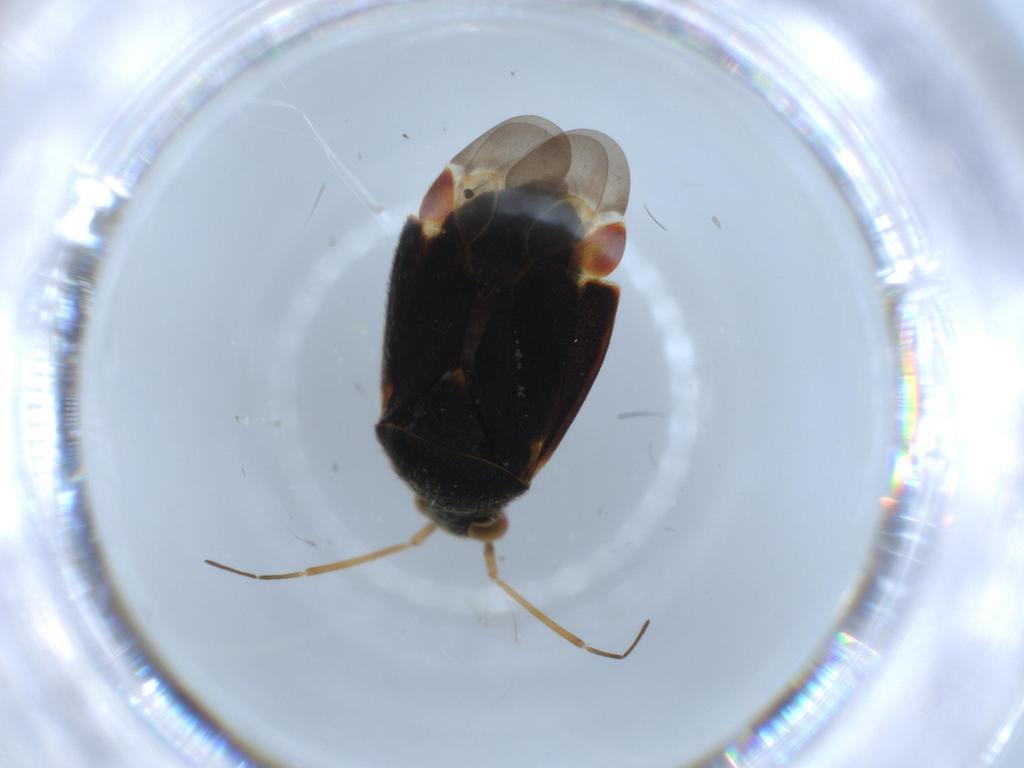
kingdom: Animalia
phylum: Arthropoda
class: Insecta
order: Hemiptera
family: Miridae
